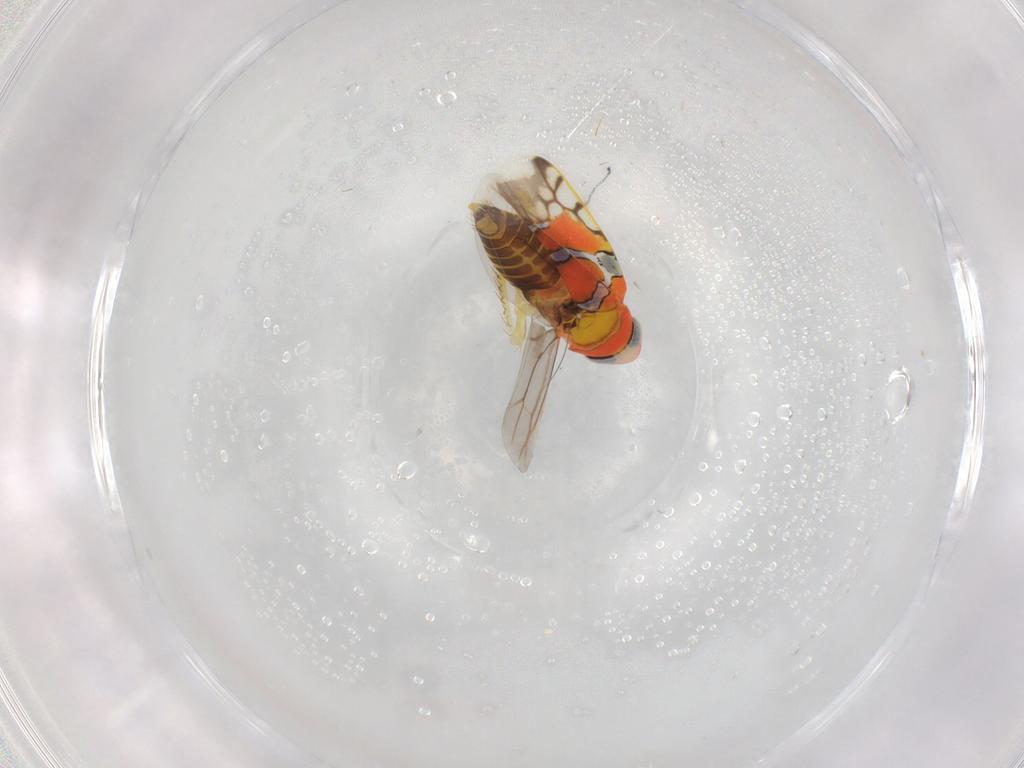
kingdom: Animalia
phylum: Arthropoda
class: Insecta
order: Hemiptera
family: Cicadellidae
